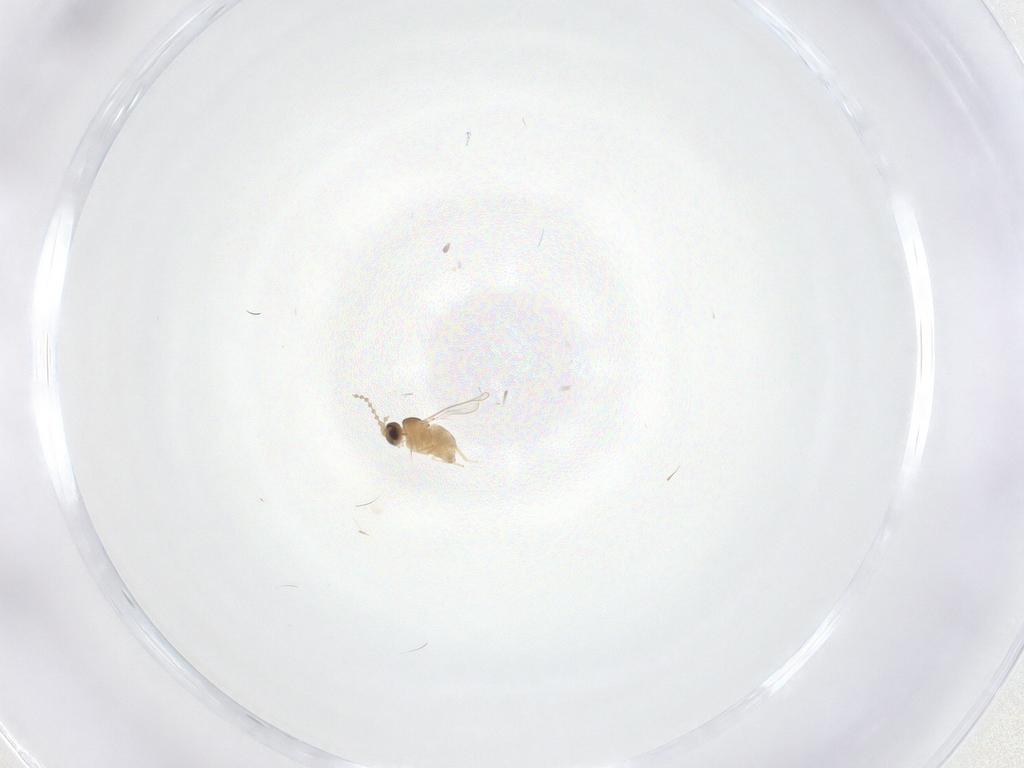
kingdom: Animalia
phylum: Arthropoda
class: Insecta
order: Diptera
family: Cecidomyiidae
